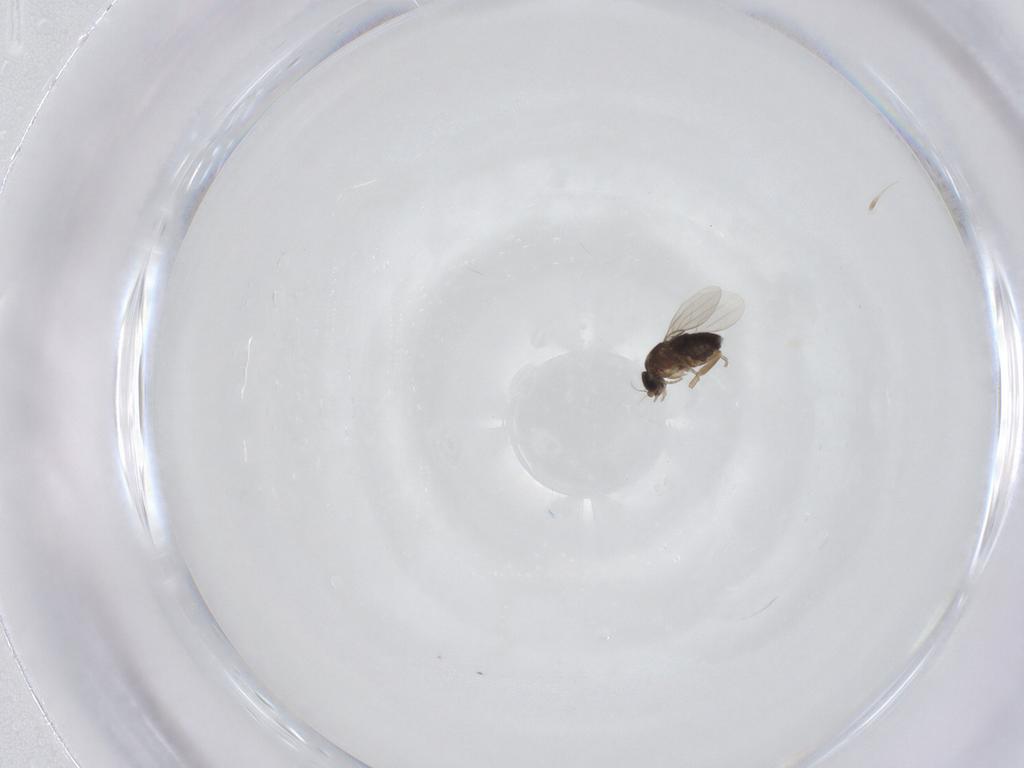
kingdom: Animalia
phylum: Arthropoda
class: Insecta
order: Diptera
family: Phoridae
